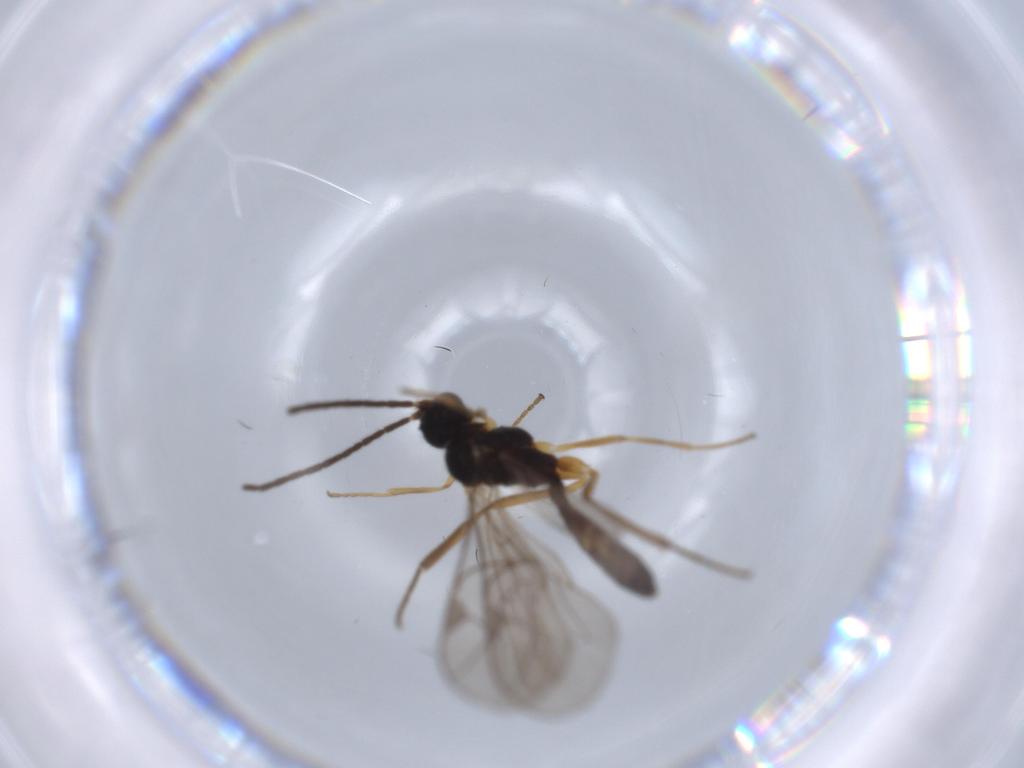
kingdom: Animalia
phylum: Arthropoda
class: Insecta
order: Hymenoptera
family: Ichneumonidae
